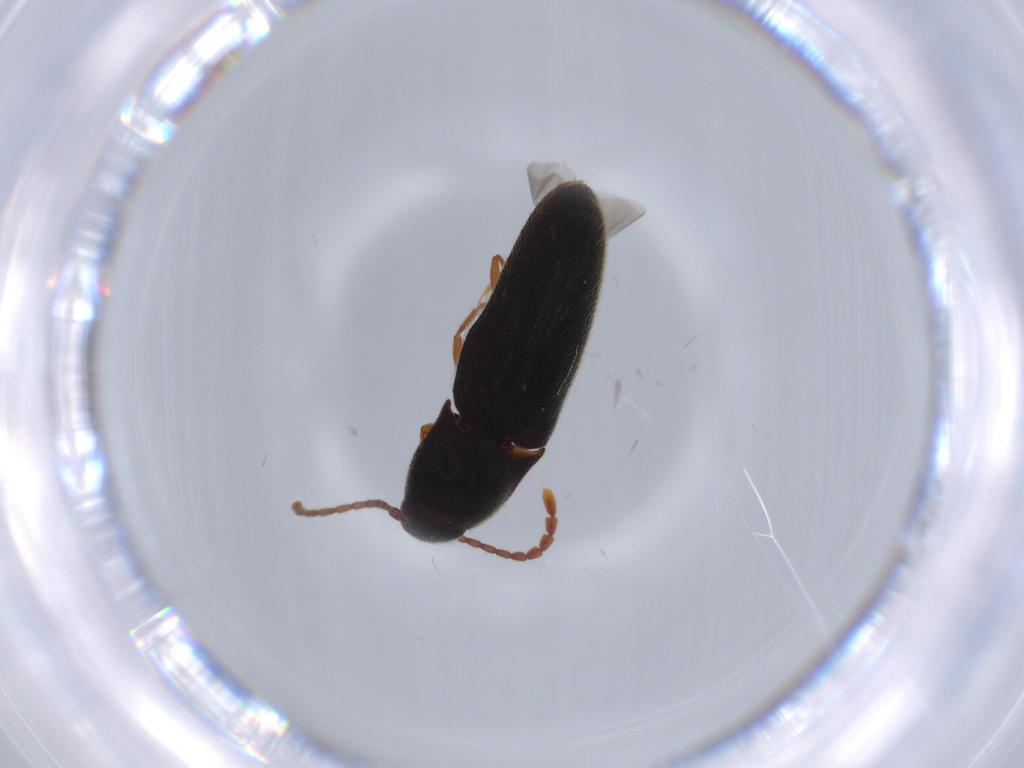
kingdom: Animalia
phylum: Arthropoda
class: Insecta
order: Coleoptera
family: Elateridae
